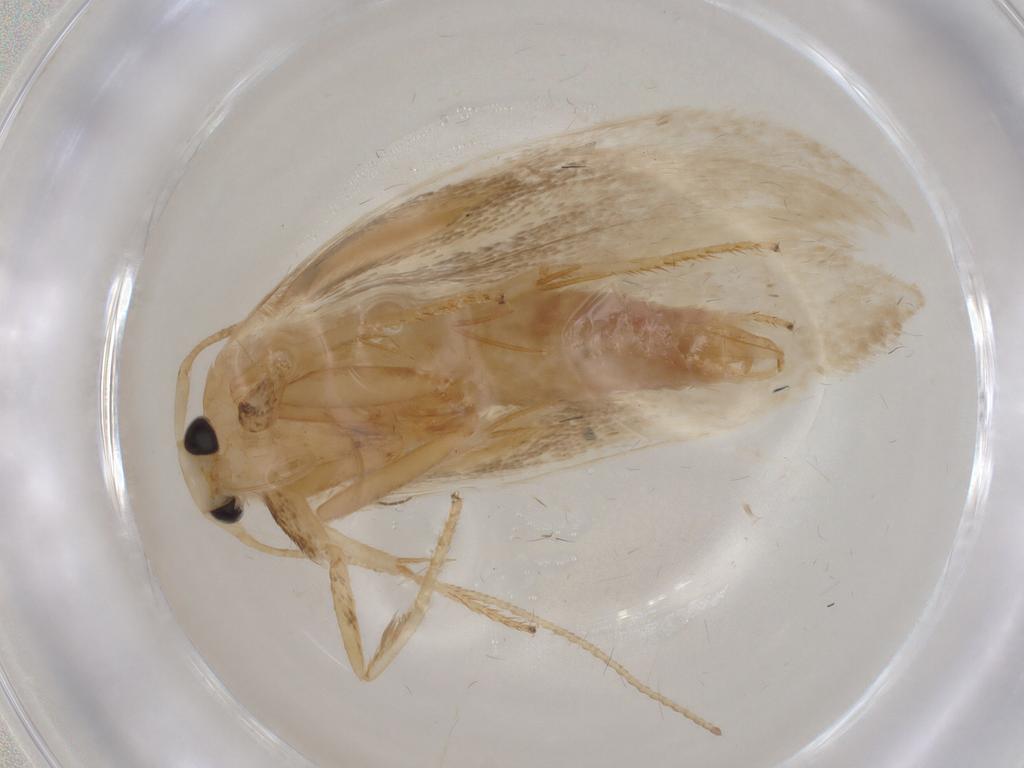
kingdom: Animalia
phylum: Arthropoda
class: Insecta
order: Lepidoptera
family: Geometridae
